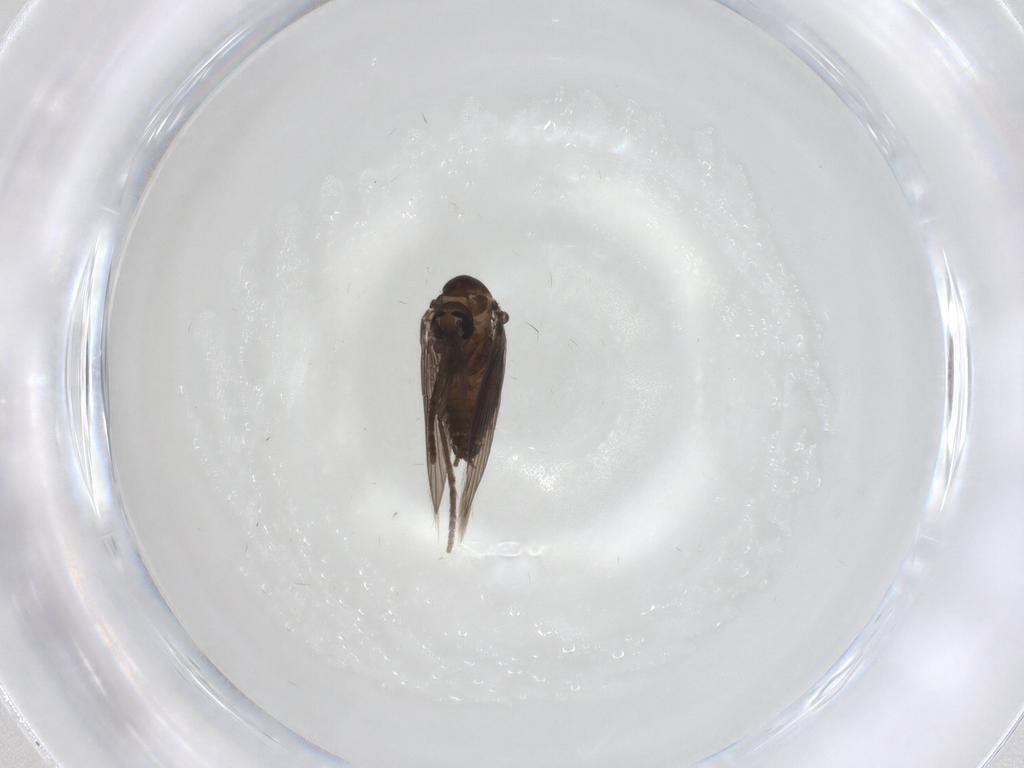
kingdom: Animalia
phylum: Arthropoda
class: Insecta
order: Diptera
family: Psychodidae
